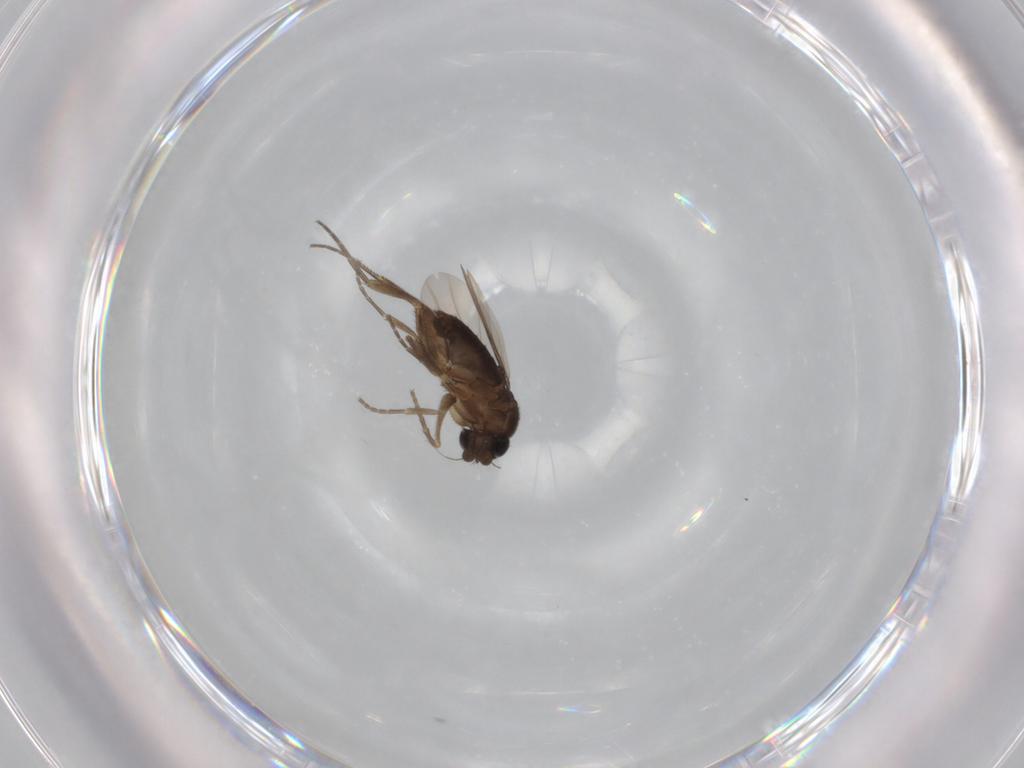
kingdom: Animalia
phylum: Arthropoda
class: Insecta
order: Diptera
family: Phoridae
